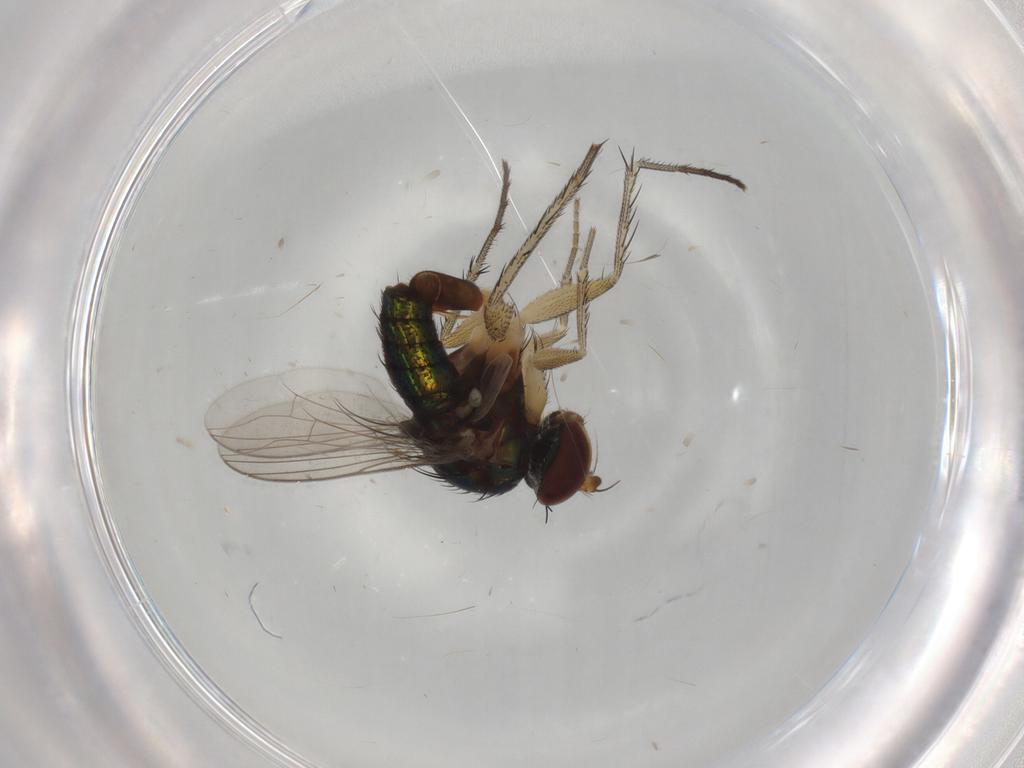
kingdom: Animalia
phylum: Arthropoda
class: Insecta
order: Diptera
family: Dolichopodidae
